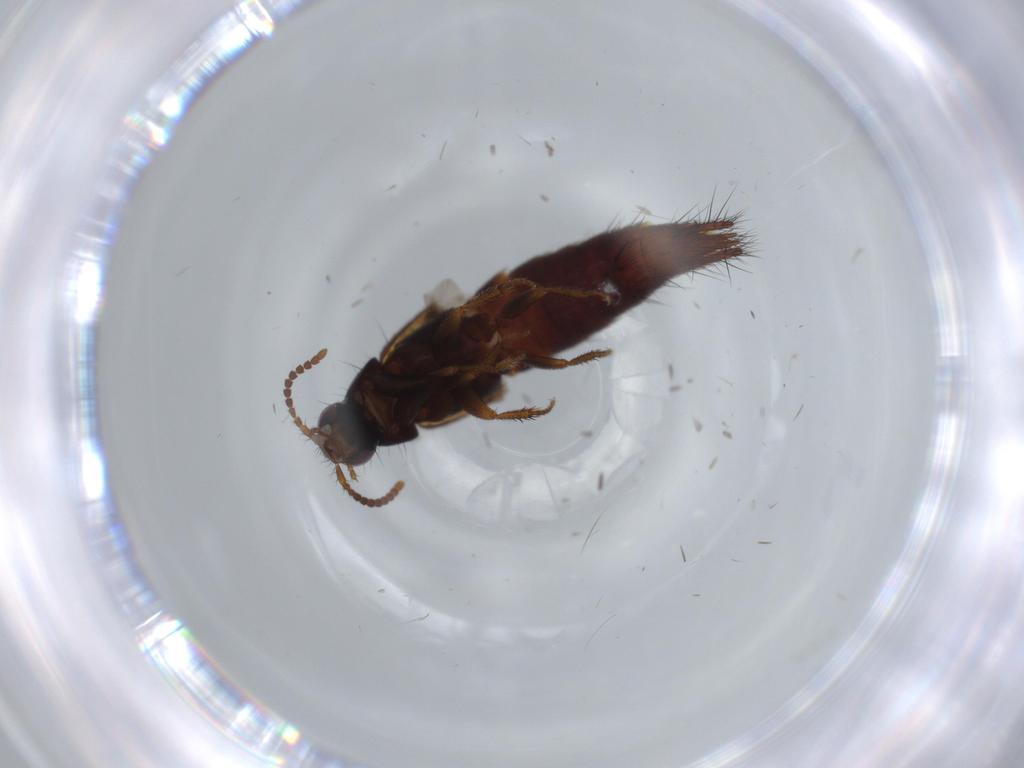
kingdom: Animalia
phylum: Arthropoda
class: Insecta
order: Coleoptera
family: Staphylinidae
